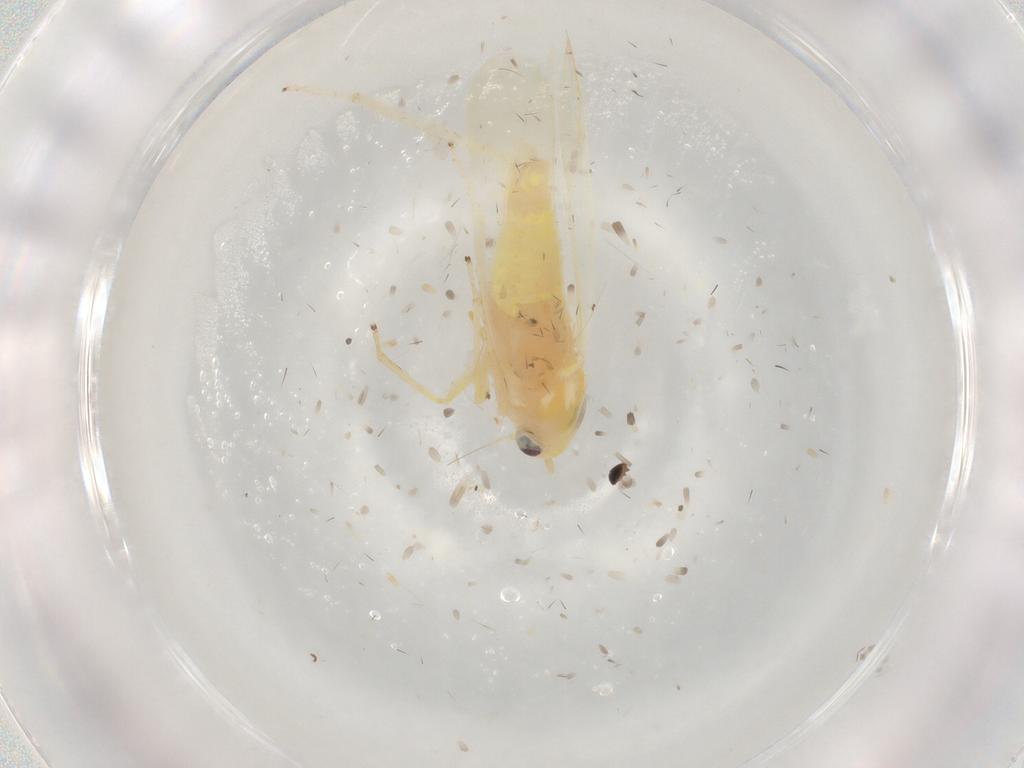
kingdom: Animalia
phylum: Arthropoda
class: Insecta
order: Hemiptera
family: Cicadellidae
